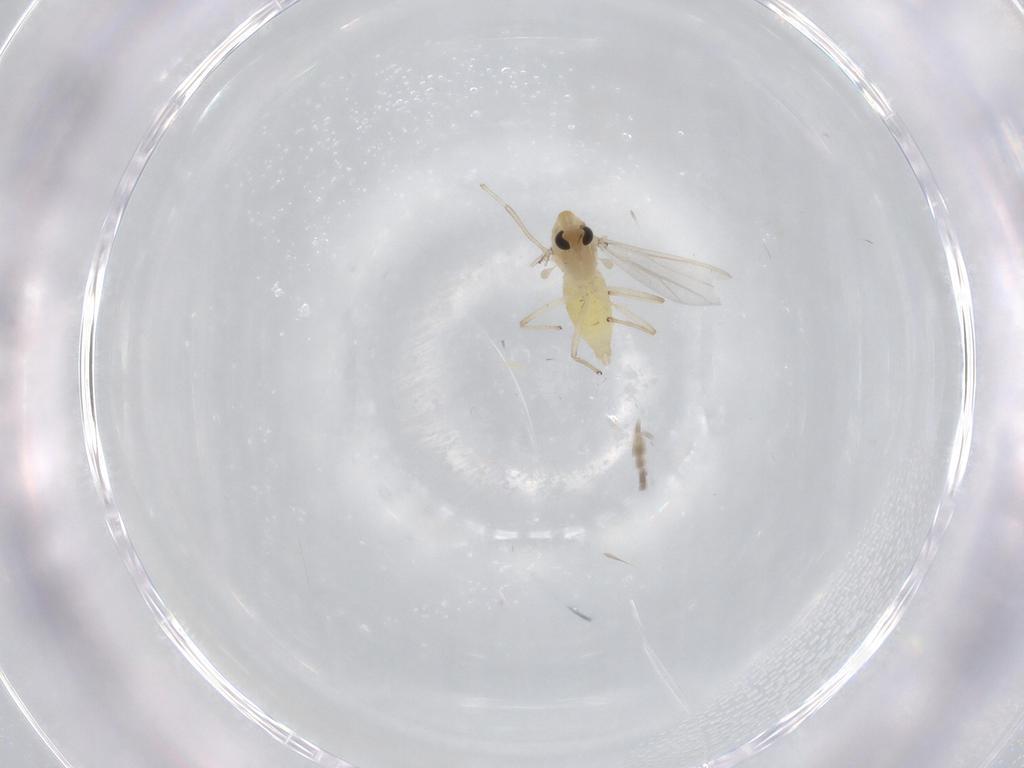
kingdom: Animalia
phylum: Arthropoda
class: Insecta
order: Diptera
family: Chironomidae
